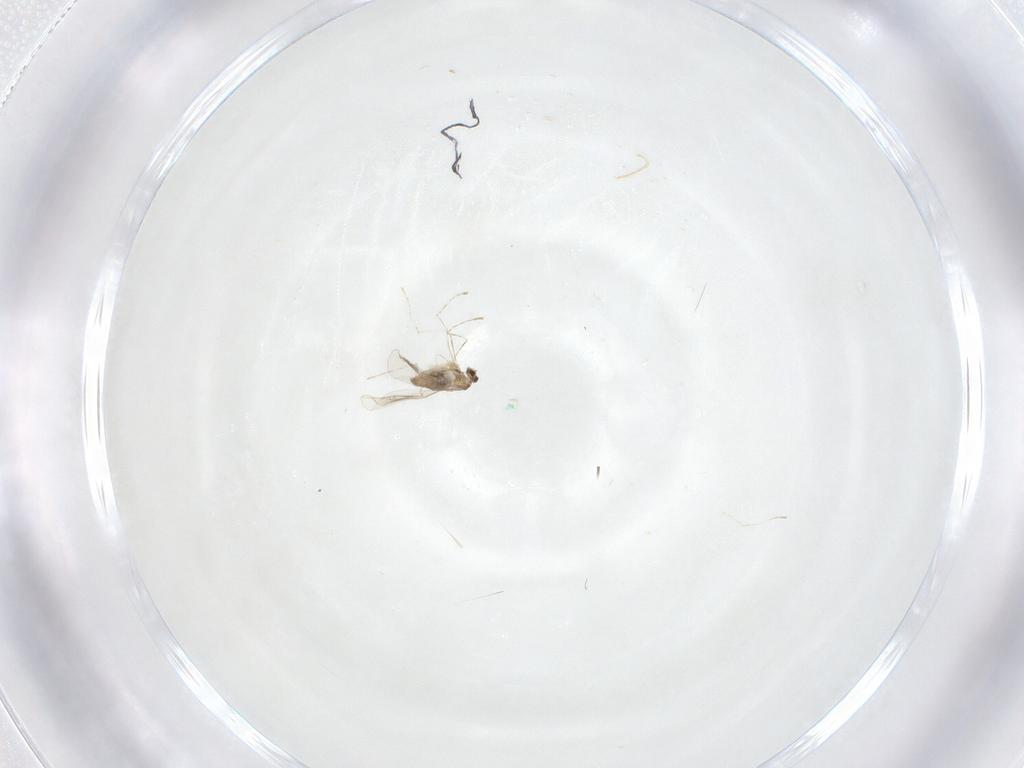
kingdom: Animalia
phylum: Arthropoda
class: Insecta
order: Diptera
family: Cecidomyiidae
